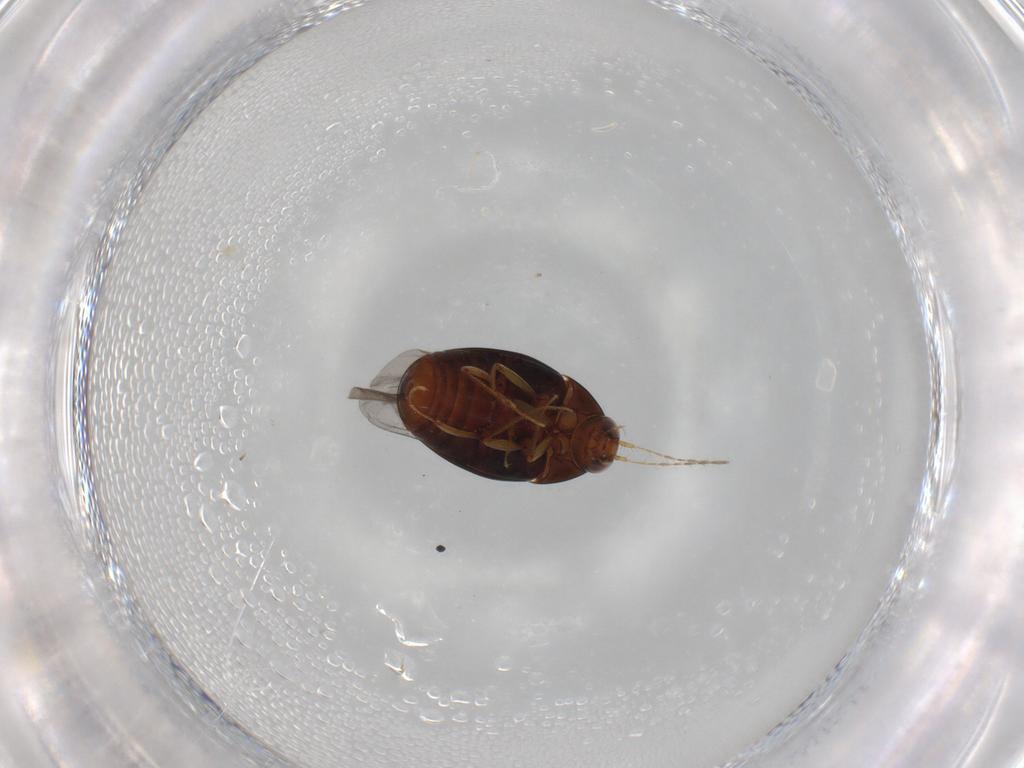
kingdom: Animalia
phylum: Arthropoda
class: Insecta
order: Coleoptera
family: Staphylinidae
